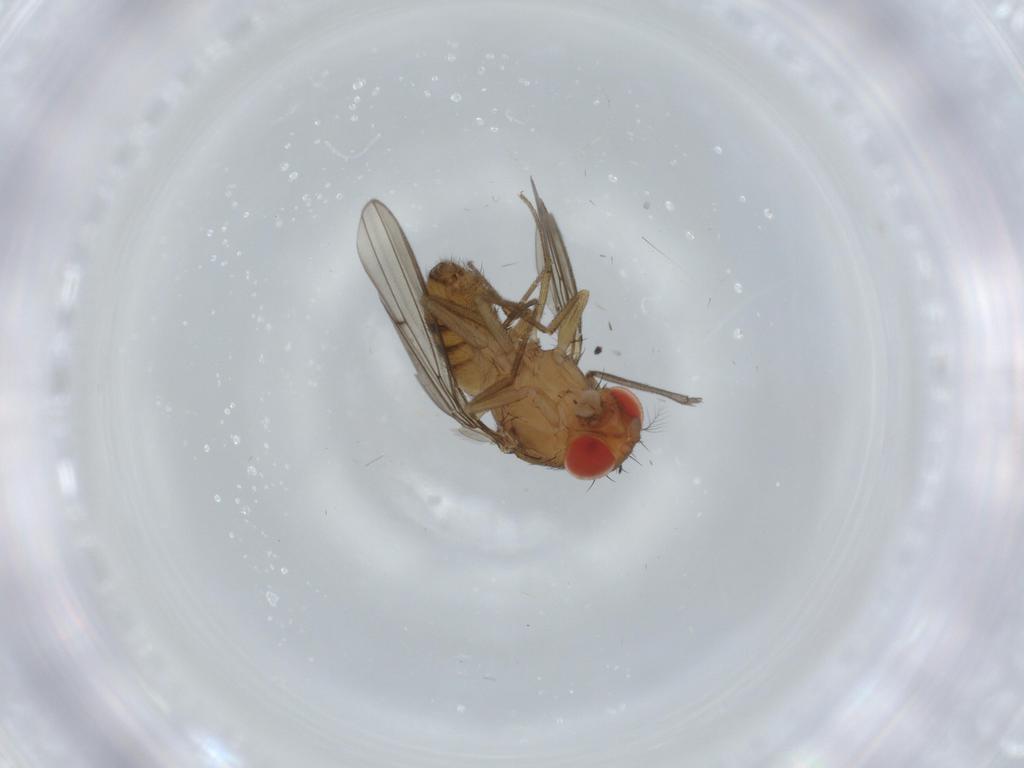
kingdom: Animalia
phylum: Arthropoda
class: Insecta
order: Diptera
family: Drosophilidae
